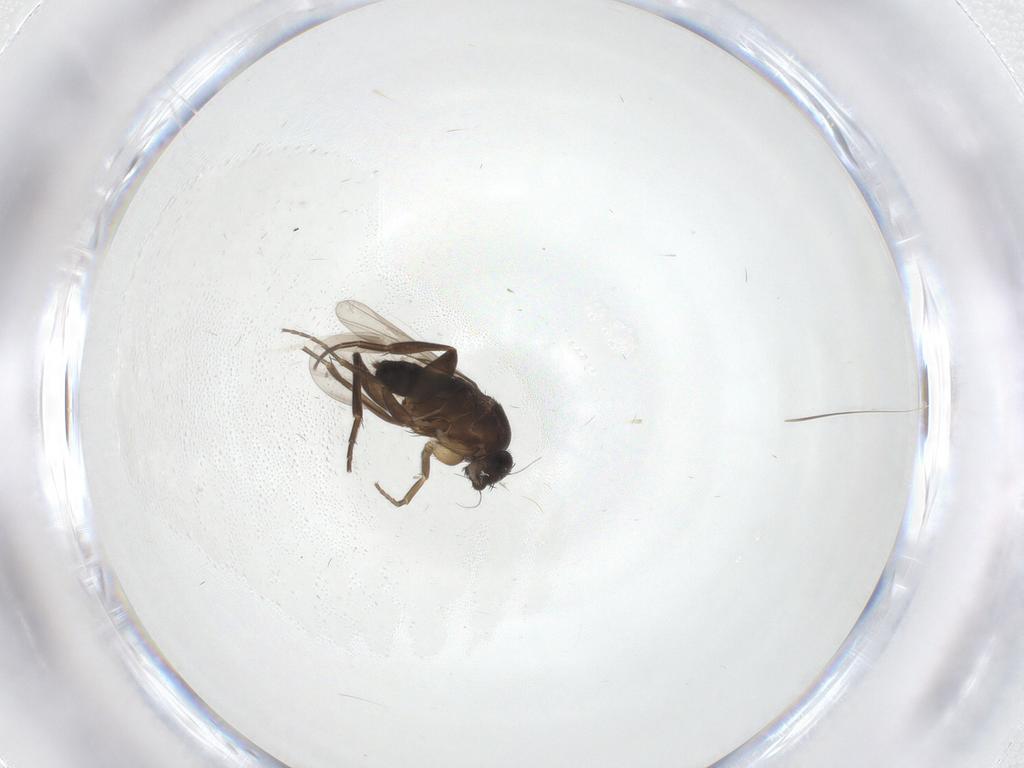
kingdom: Animalia
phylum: Arthropoda
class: Insecta
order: Diptera
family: Phoridae
